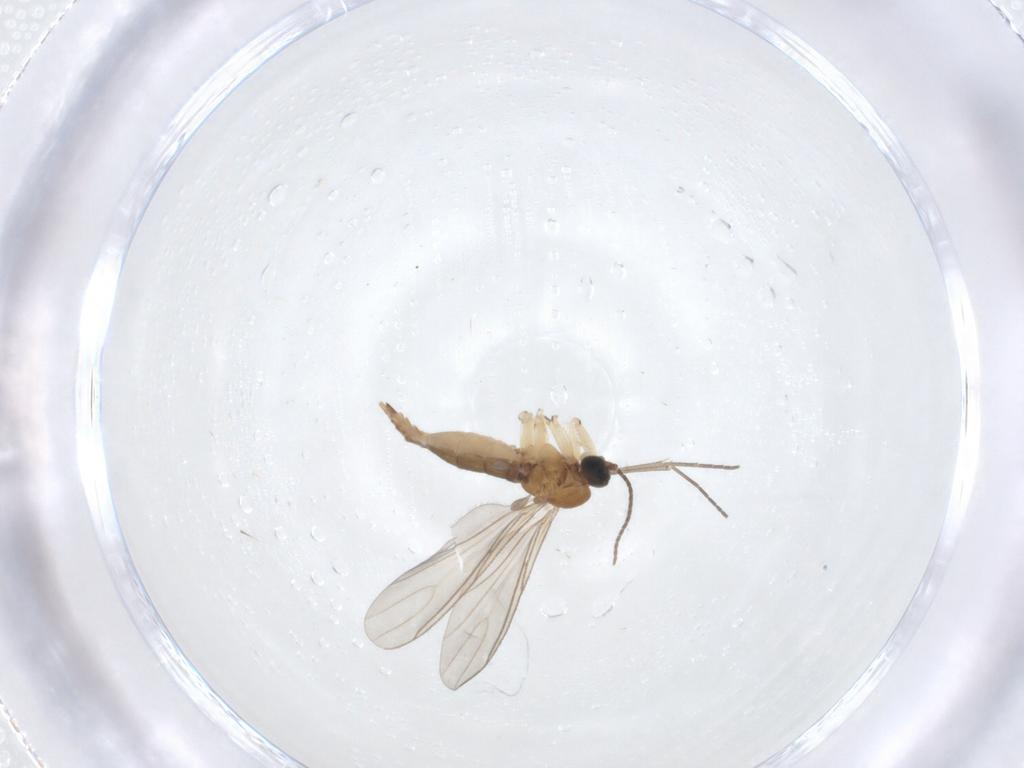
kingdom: Animalia
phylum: Arthropoda
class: Insecta
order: Diptera
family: Sciaridae
